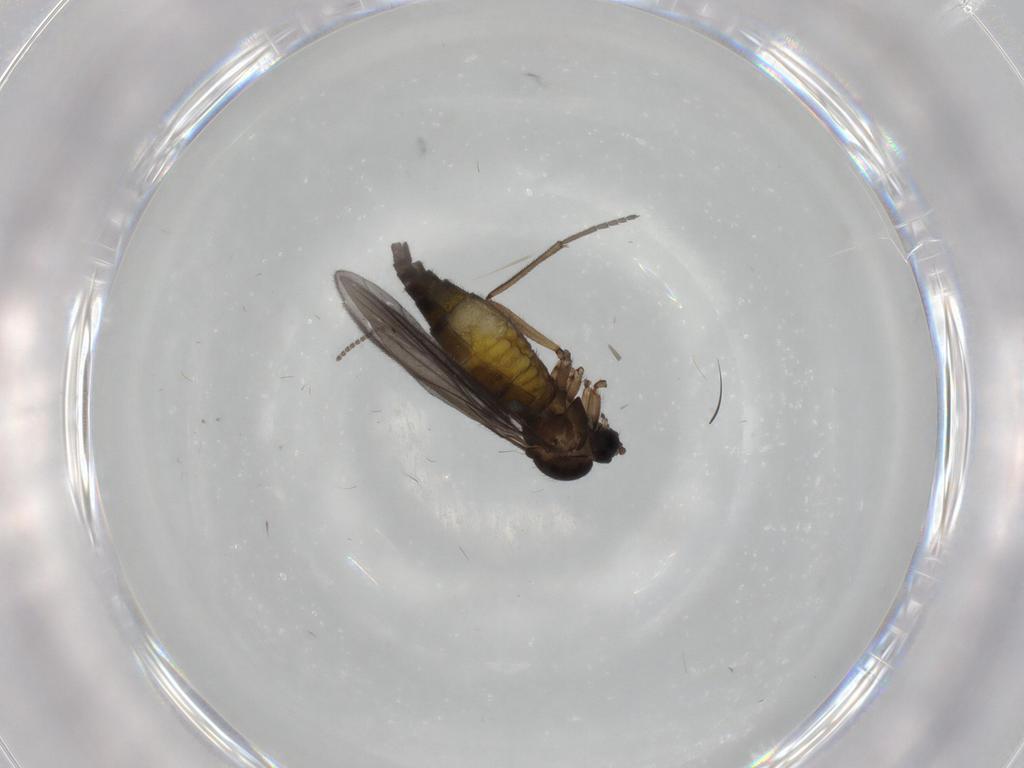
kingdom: Animalia
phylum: Arthropoda
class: Insecta
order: Diptera
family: Sciaridae
